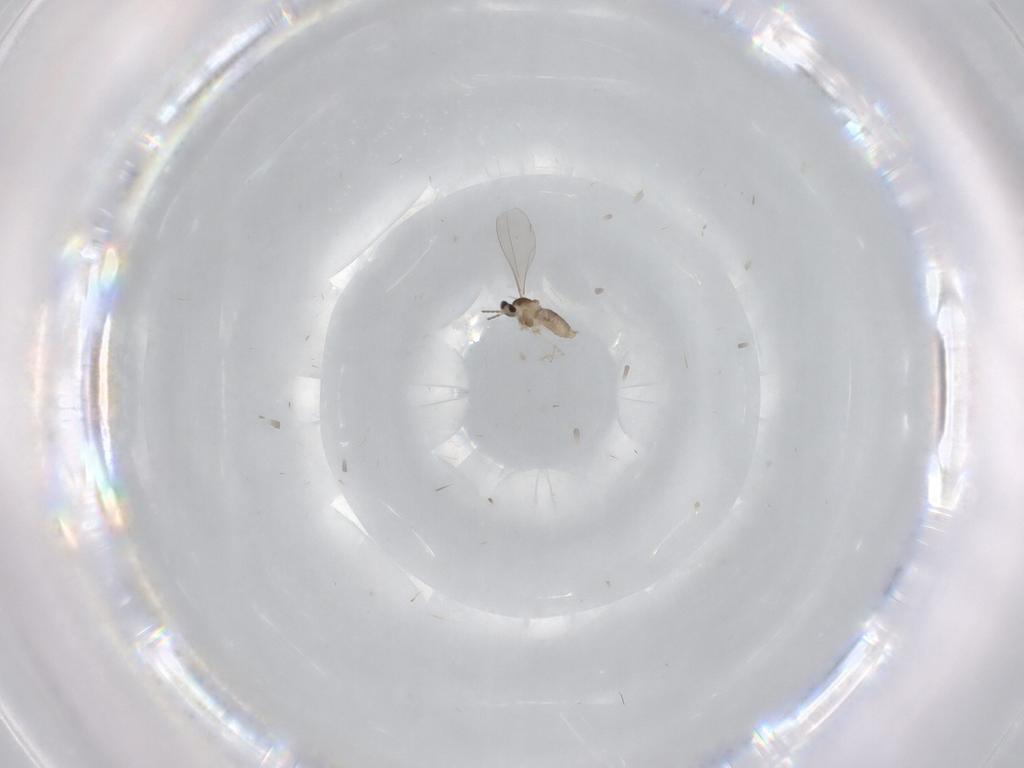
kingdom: Animalia
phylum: Arthropoda
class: Insecta
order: Diptera
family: Cecidomyiidae
